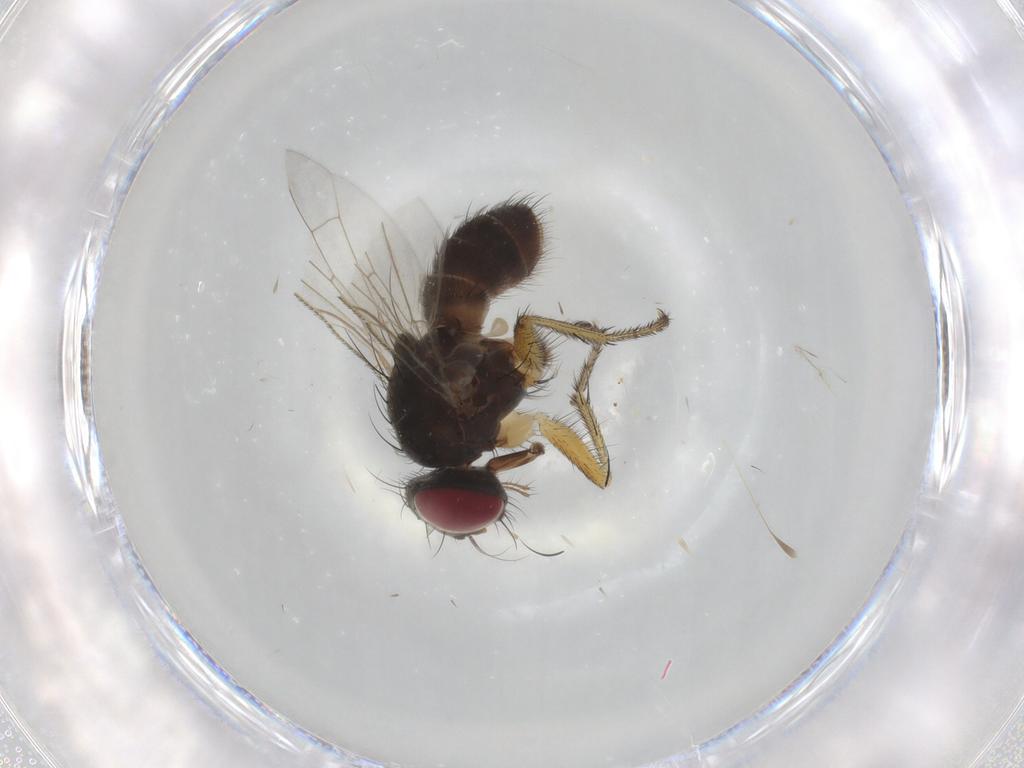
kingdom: Animalia
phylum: Arthropoda
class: Insecta
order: Diptera
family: Muscidae
